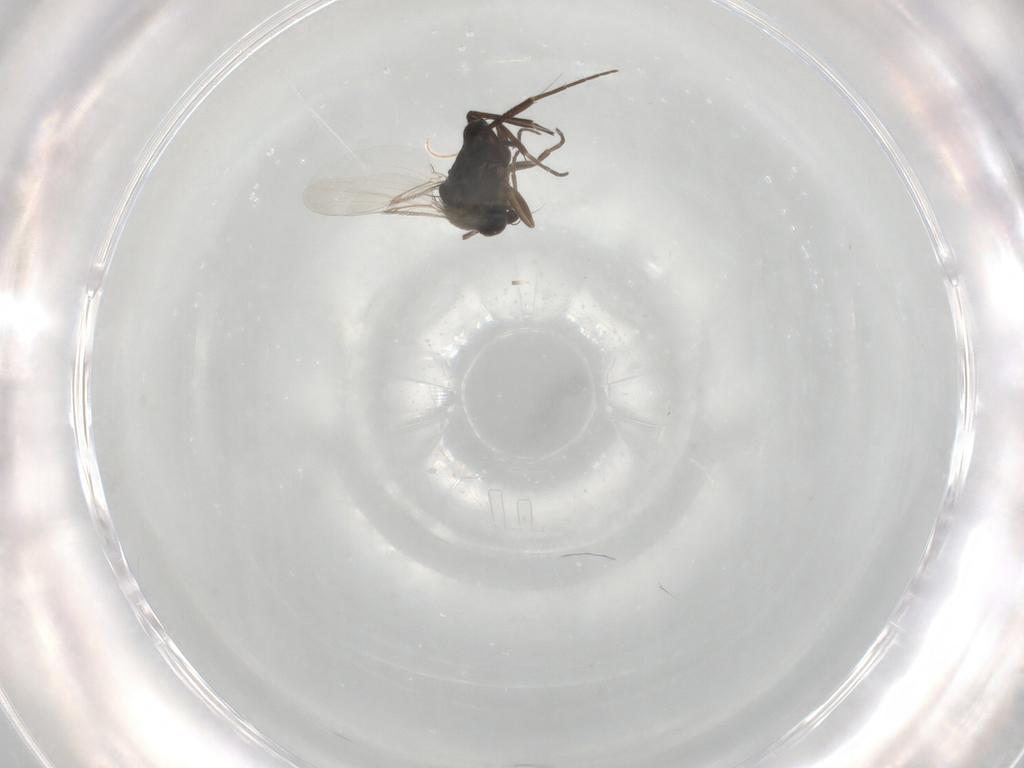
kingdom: Animalia
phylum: Arthropoda
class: Insecta
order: Diptera
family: Phoridae
